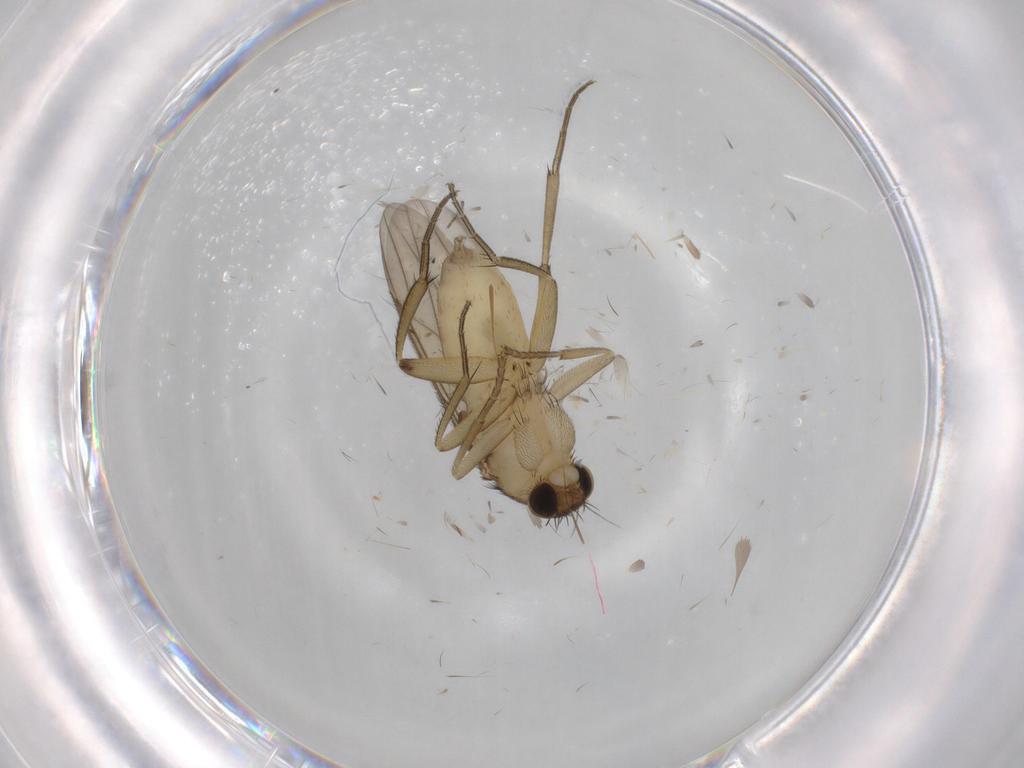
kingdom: Animalia
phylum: Arthropoda
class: Insecta
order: Diptera
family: Phoridae
